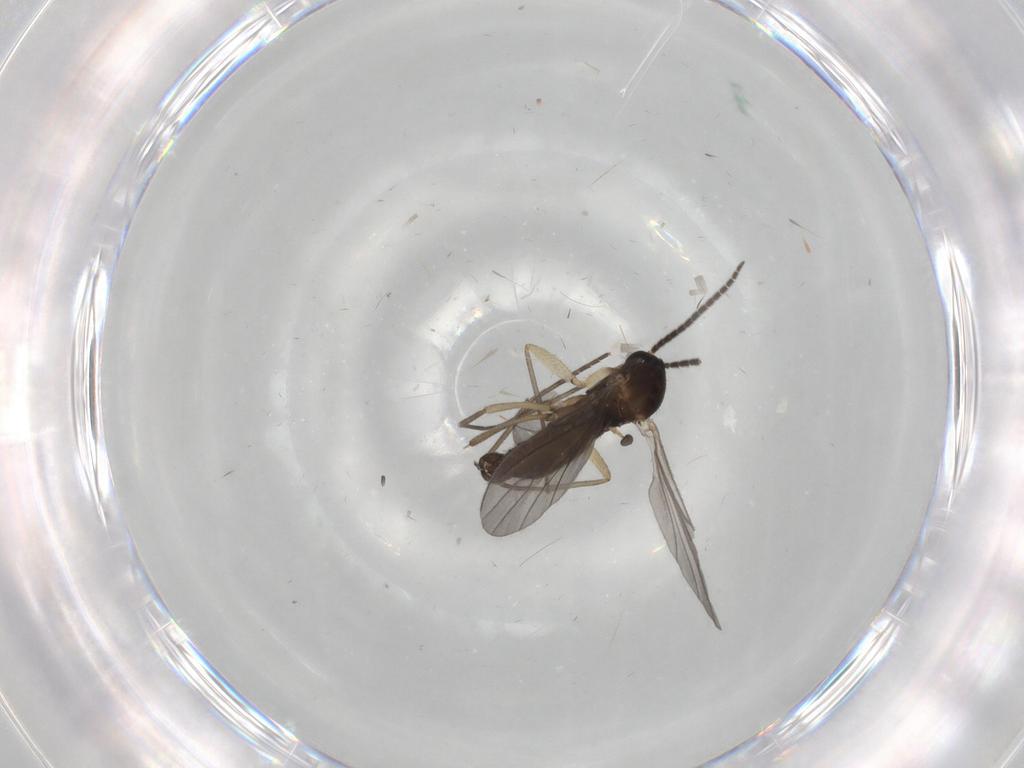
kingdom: Animalia
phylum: Arthropoda
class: Insecta
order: Diptera
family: Sciaridae
